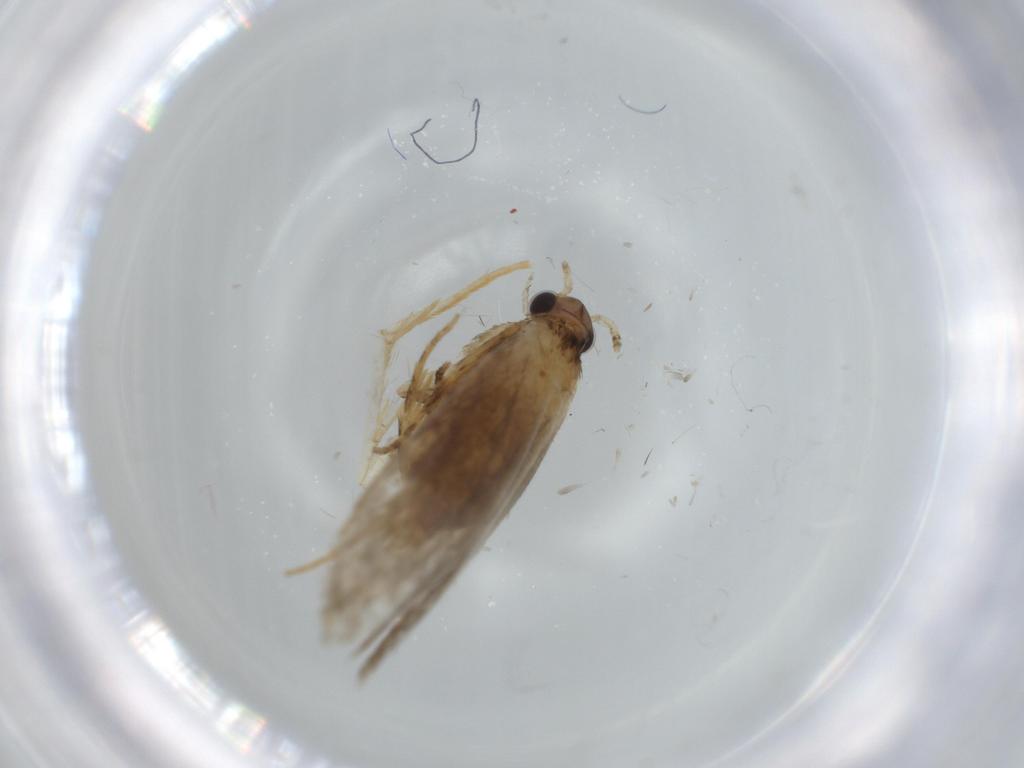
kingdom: Animalia
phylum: Arthropoda
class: Insecta
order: Lepidoptera
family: Tineidae
